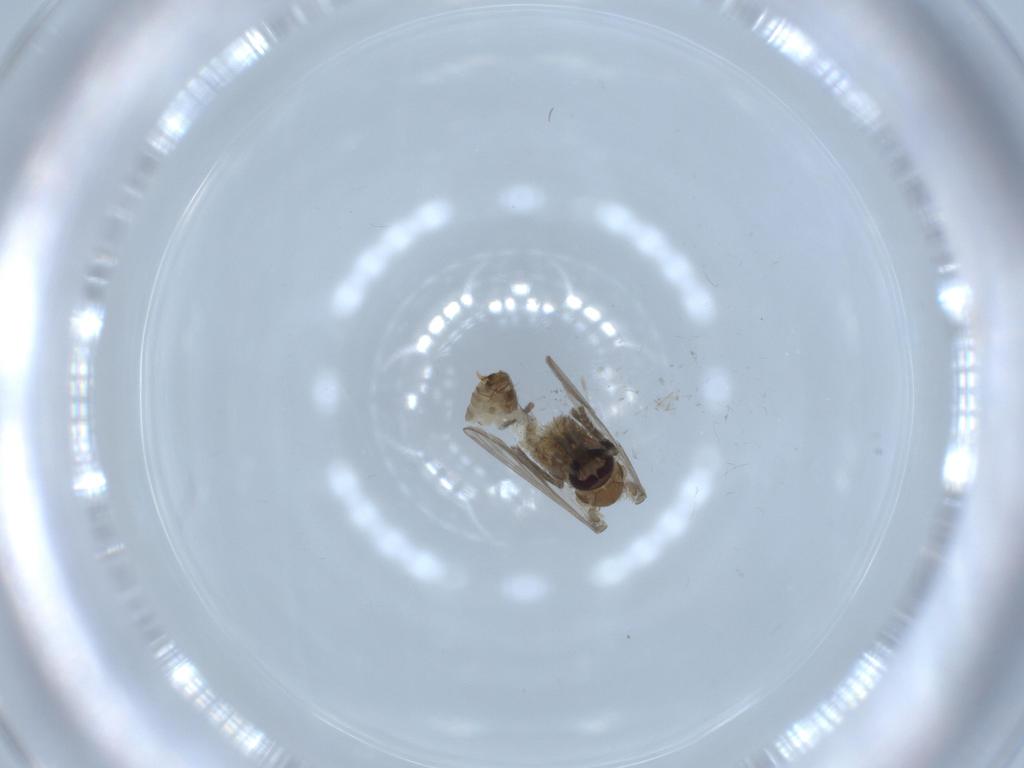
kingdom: Animalia
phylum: Arthropoda
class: Insecta
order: Diptera
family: Psychodidae
